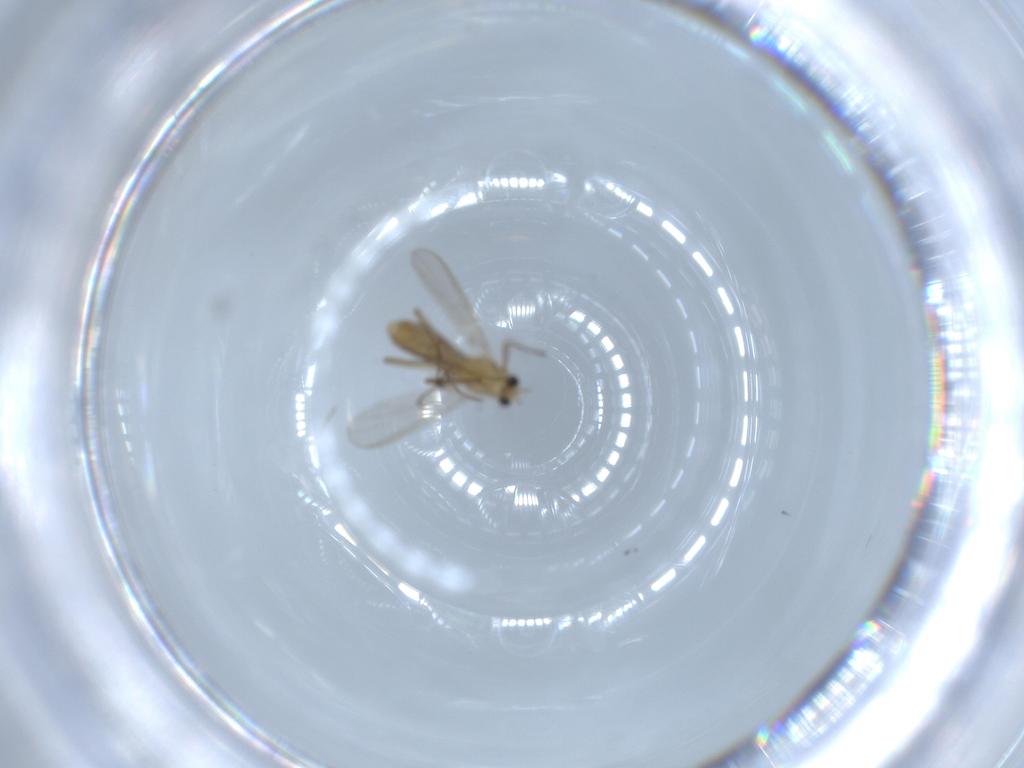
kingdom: Animalia
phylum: Arthropoda
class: Insecta
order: Diptera
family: Chironomidae
